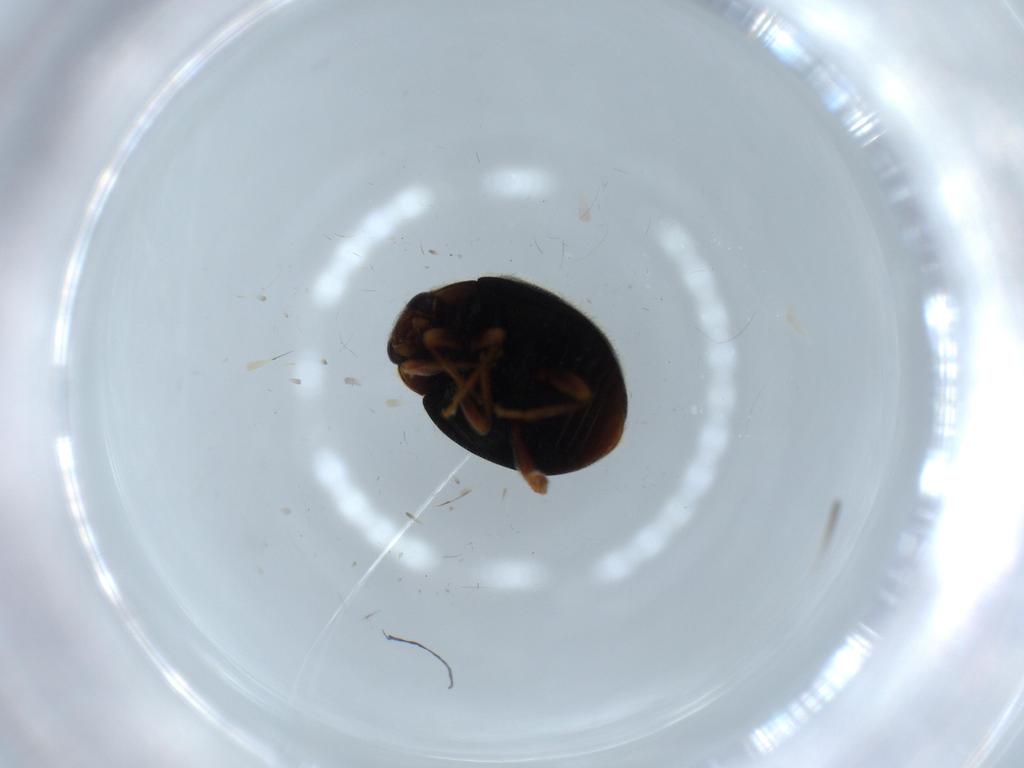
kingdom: Animalia
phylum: Arthropoda
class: Insecta
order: Coleoptera
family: Coccinellidae
